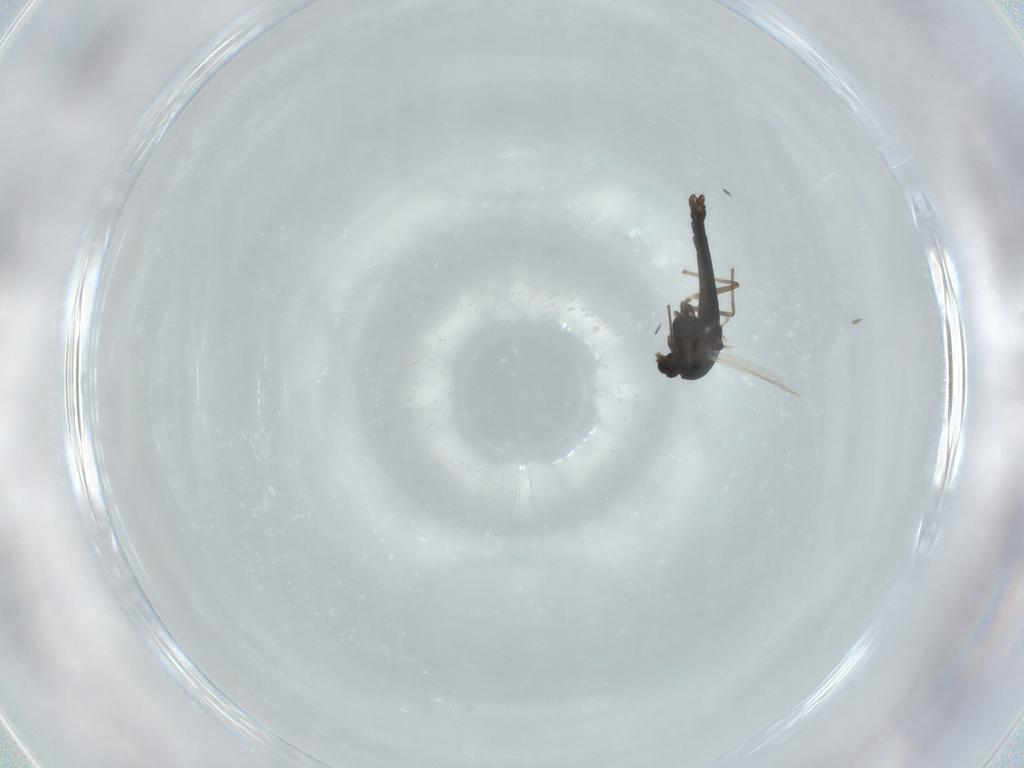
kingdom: Animalia
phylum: Arthropoda
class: Insecta
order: Diptera
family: Chironomidae
